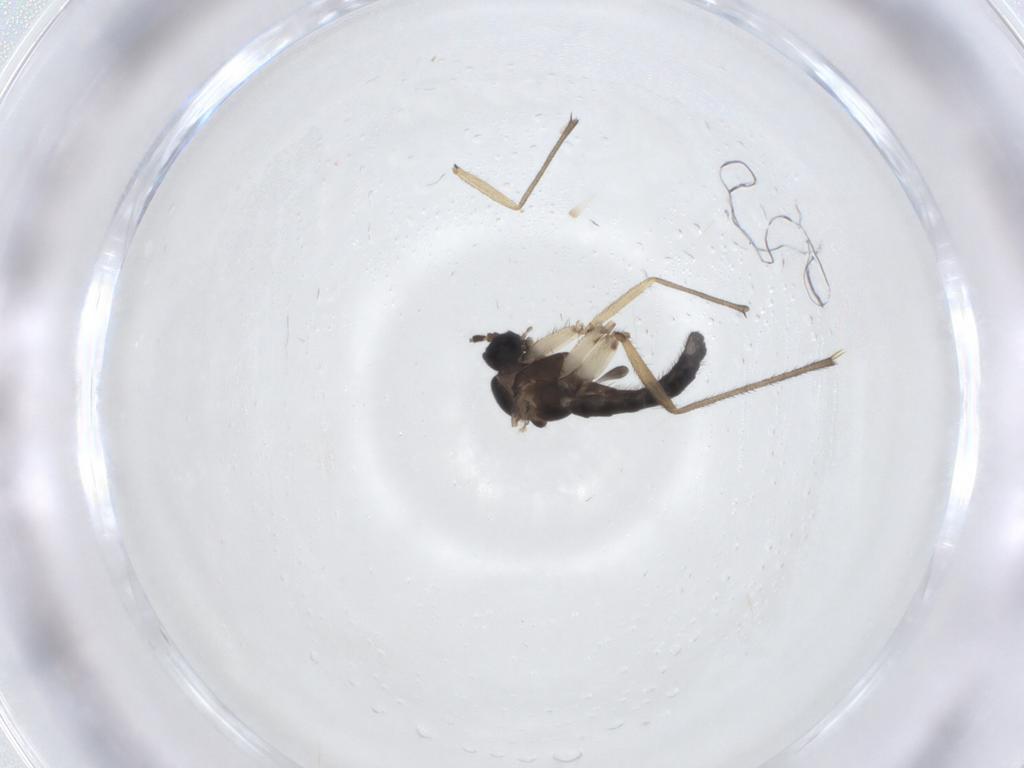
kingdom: Animalia
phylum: Arthropoda
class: Insecta
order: Diptera
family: Sciaridae
